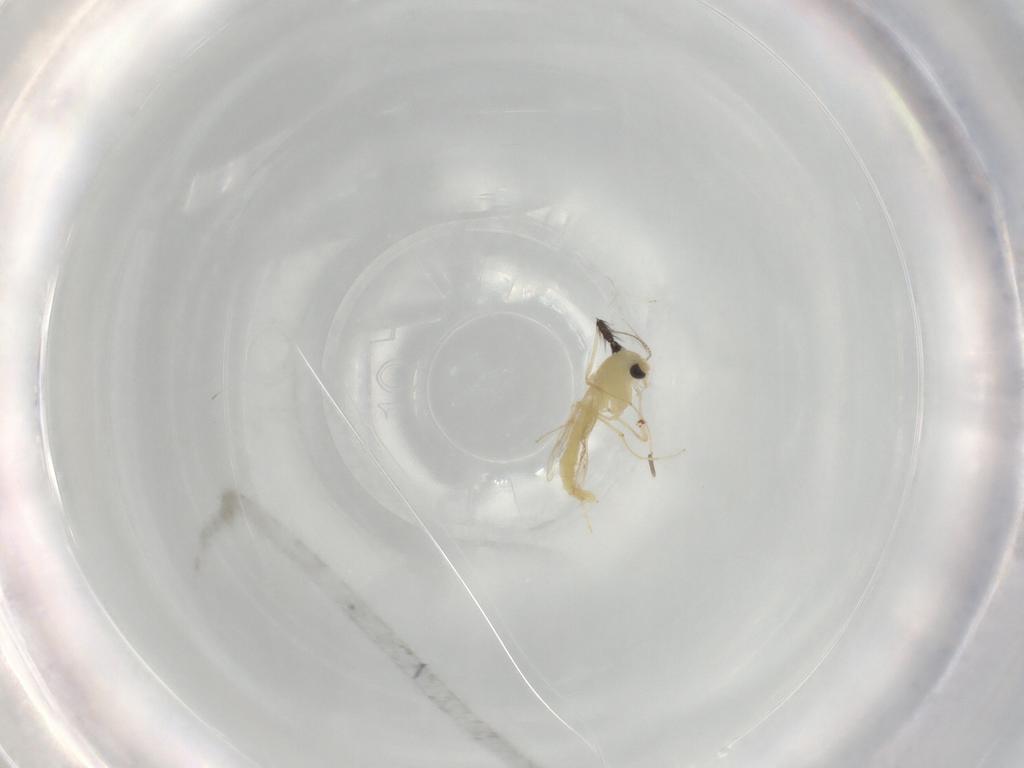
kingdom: Animalia
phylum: Arthropoda
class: Insecta
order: Diptera
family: Chironomidae
